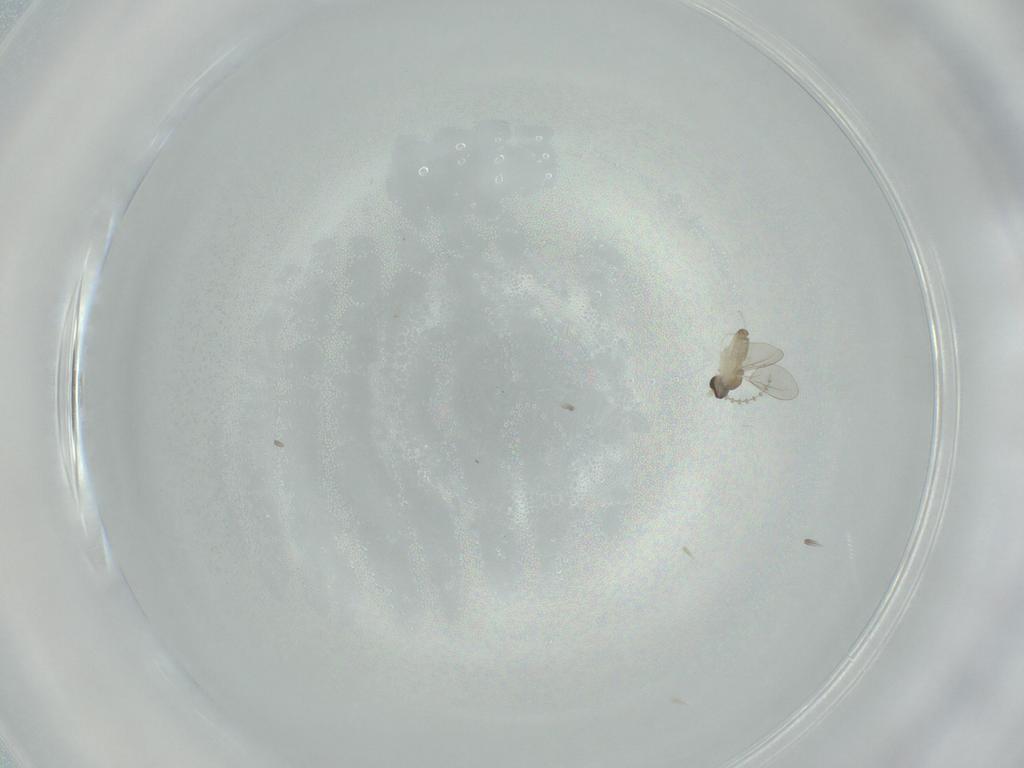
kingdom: Animalia
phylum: Arthropoda
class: Insecta
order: Diptera
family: Cecidomyiidae
